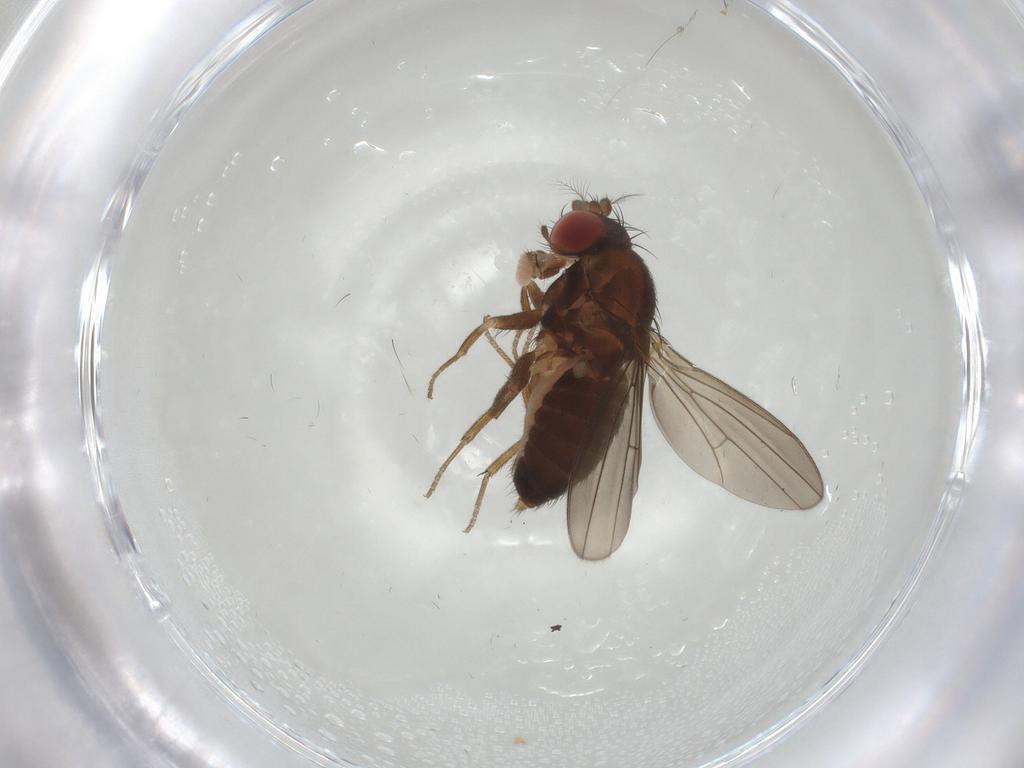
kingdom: Animalia
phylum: Arthropoda
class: Insecta
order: Diptera
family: Drosophilidae
